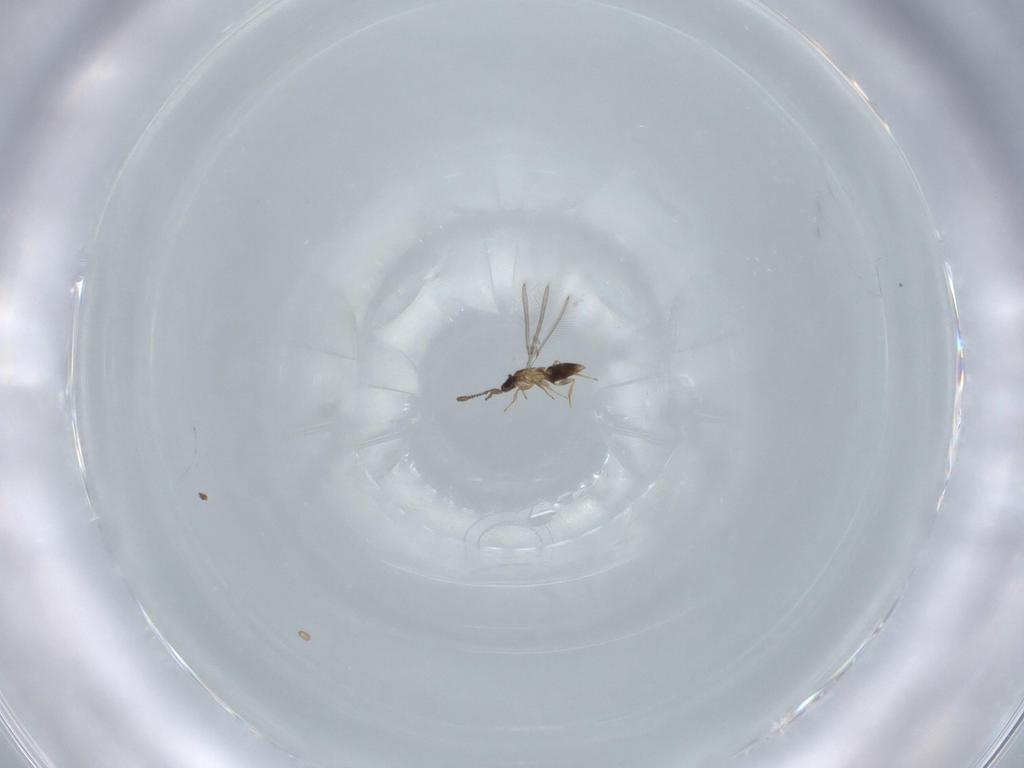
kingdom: Animalia
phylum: Arthropoda
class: Insecta
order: Hymenoptera
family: Mymaridae
